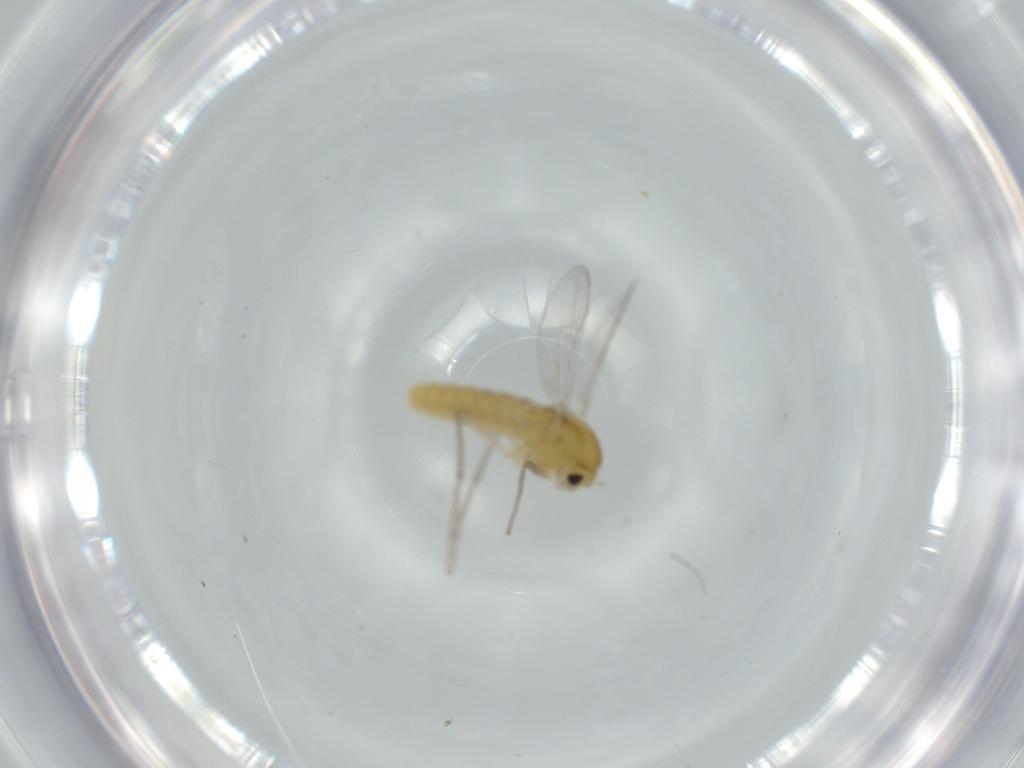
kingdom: Animalia
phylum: Arthropoda
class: Insecta
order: Diptera
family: Chironomidae
